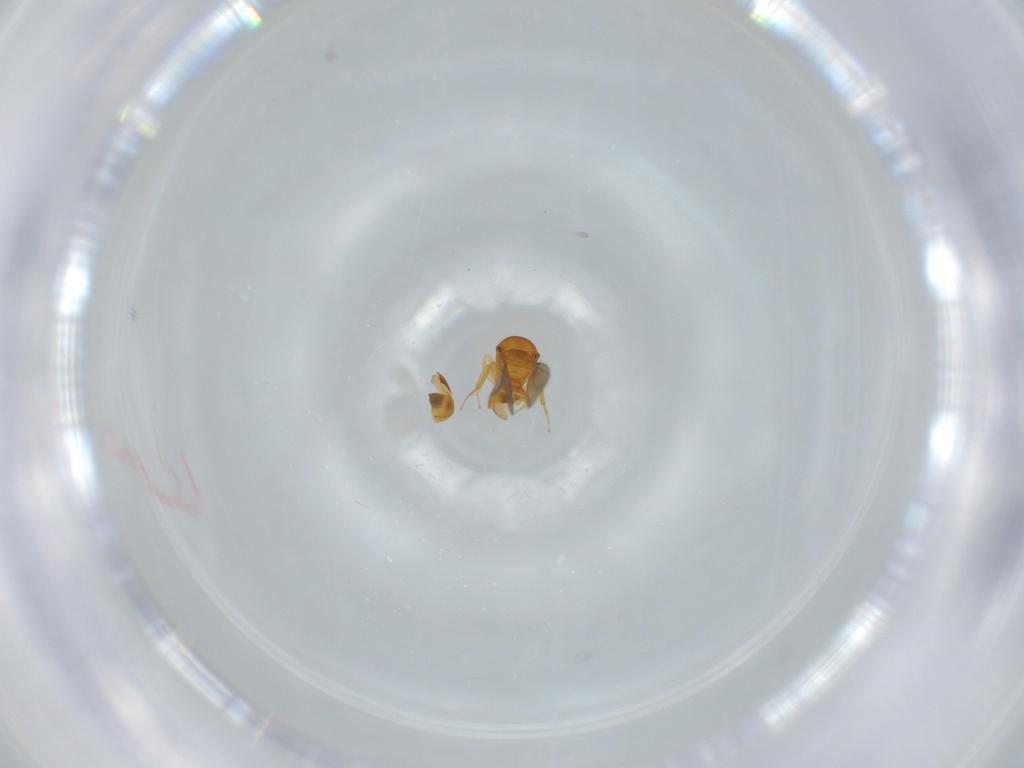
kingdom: Animalia
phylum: Arthropoda
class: Insecta
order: Hymenoptera
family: Scelionidae
